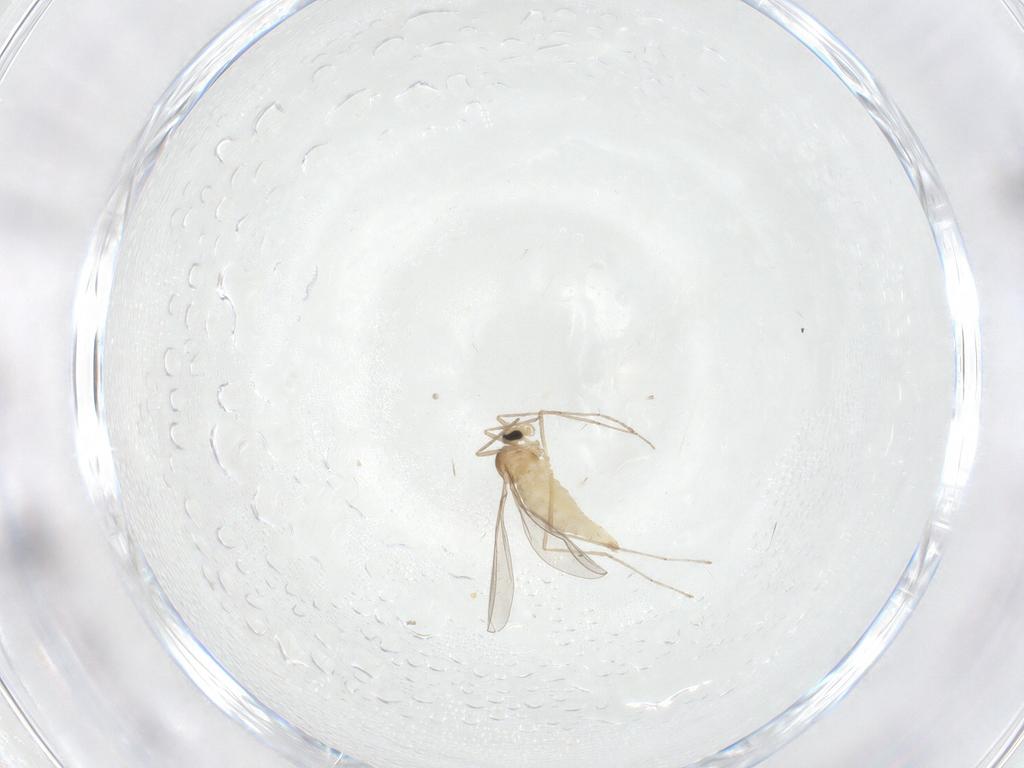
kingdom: Animalia
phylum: Arthropoda
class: Insecta
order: Diptera
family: Cecidomyiidae
